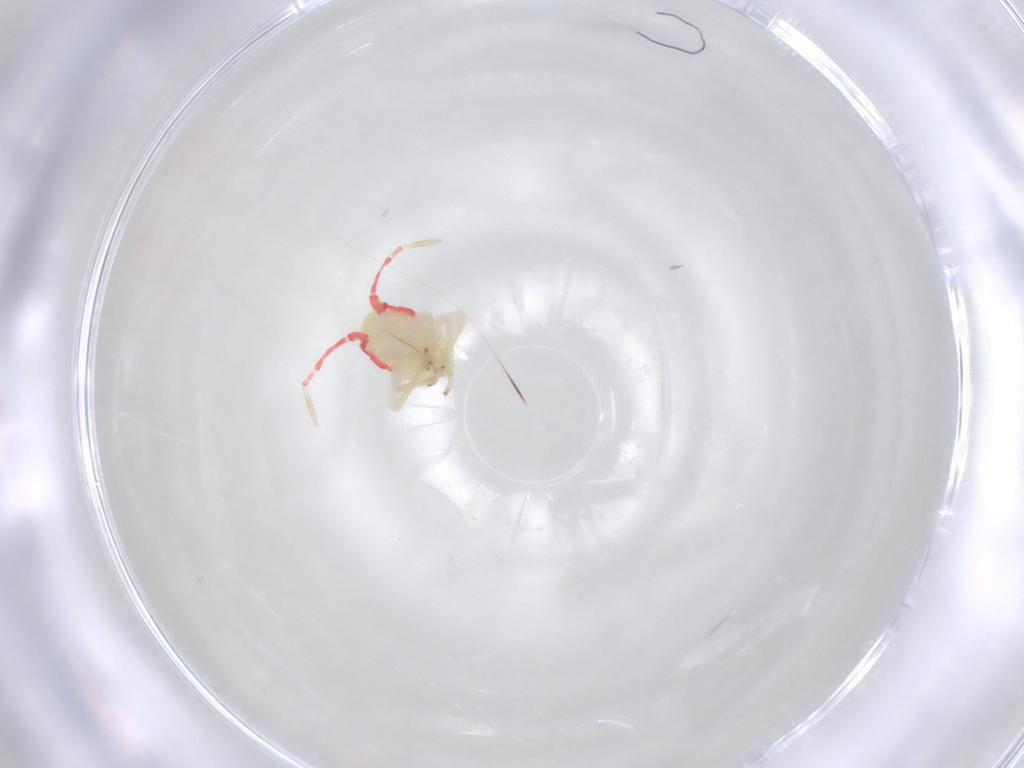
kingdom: Animalia
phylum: Arthropoda
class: Insecta
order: Hemiptera
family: Miridae
